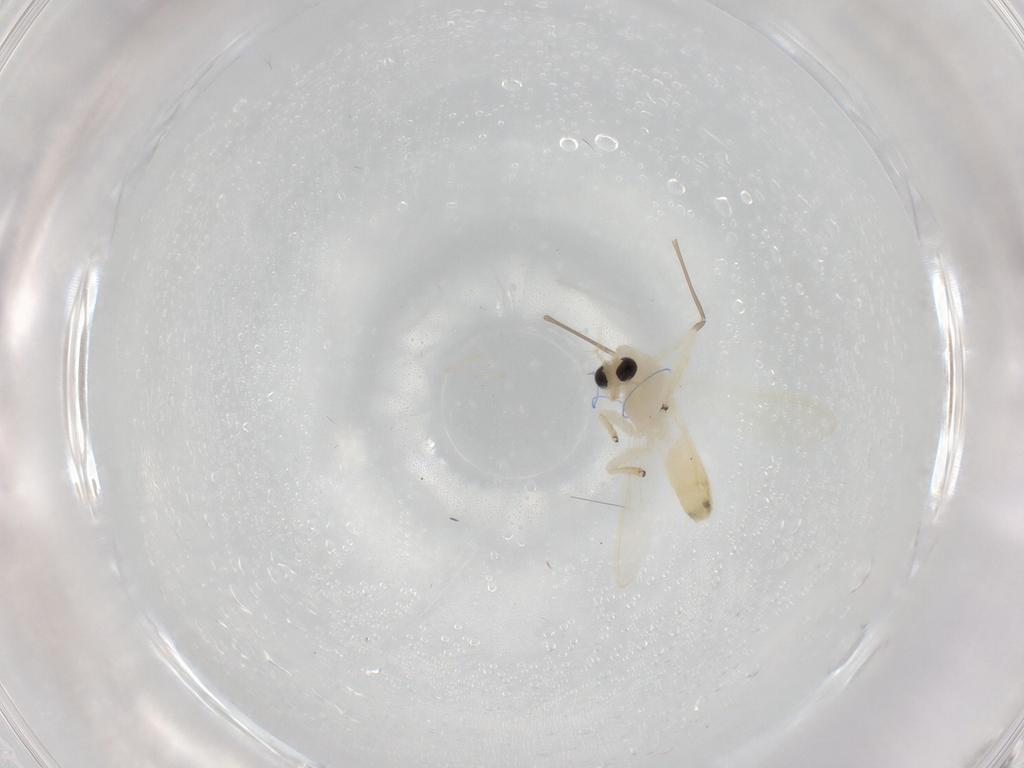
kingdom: Animalia
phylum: Arthropoda
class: Insecta
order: Diptera
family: Chironomidae
